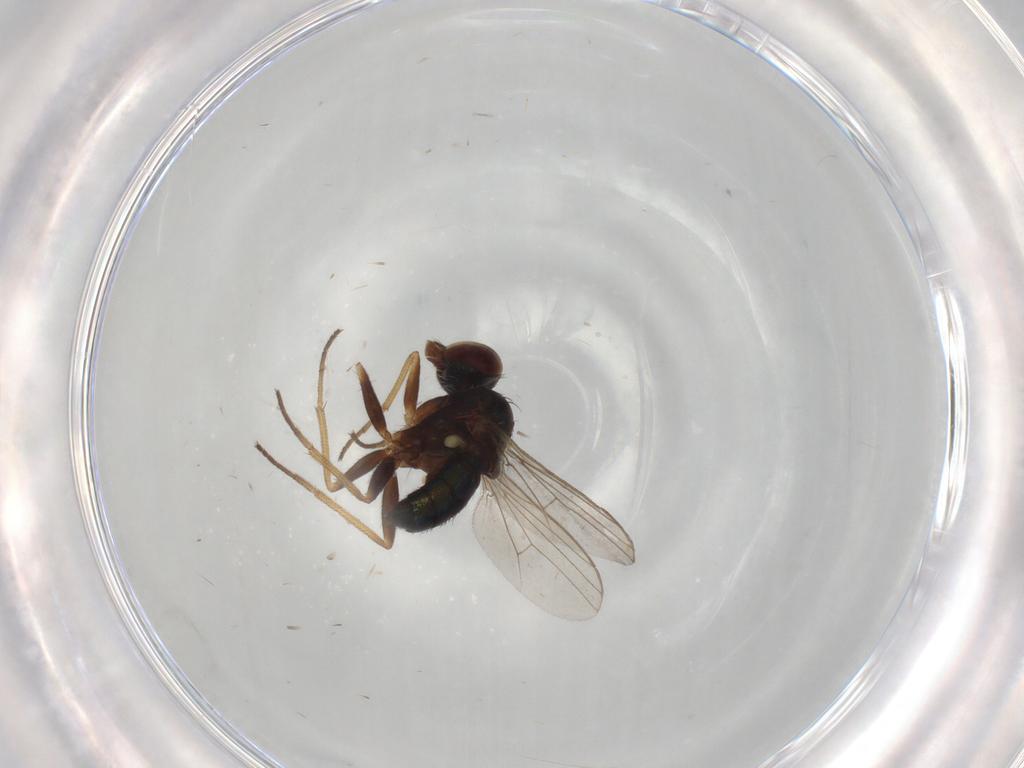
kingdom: Animalia
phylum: Arthropoda
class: Insecta
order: Diptera
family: Dolichopodidae
